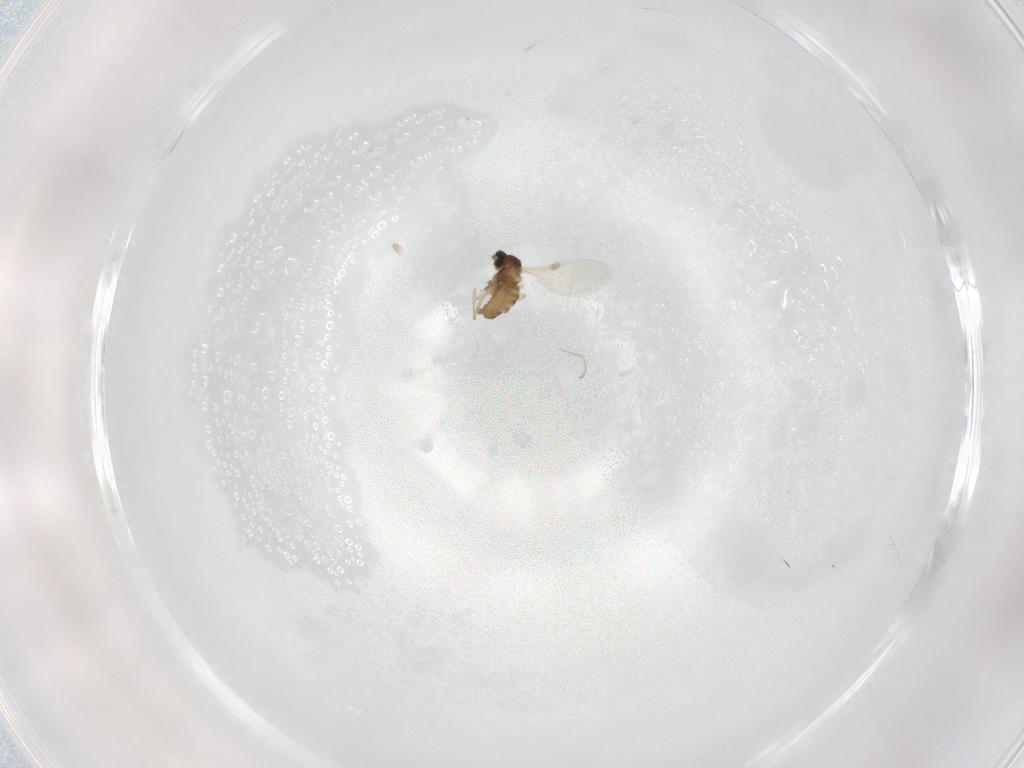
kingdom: Animalia
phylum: Arthropoda
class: Insecta
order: Diptera
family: Cecidomyiidae
